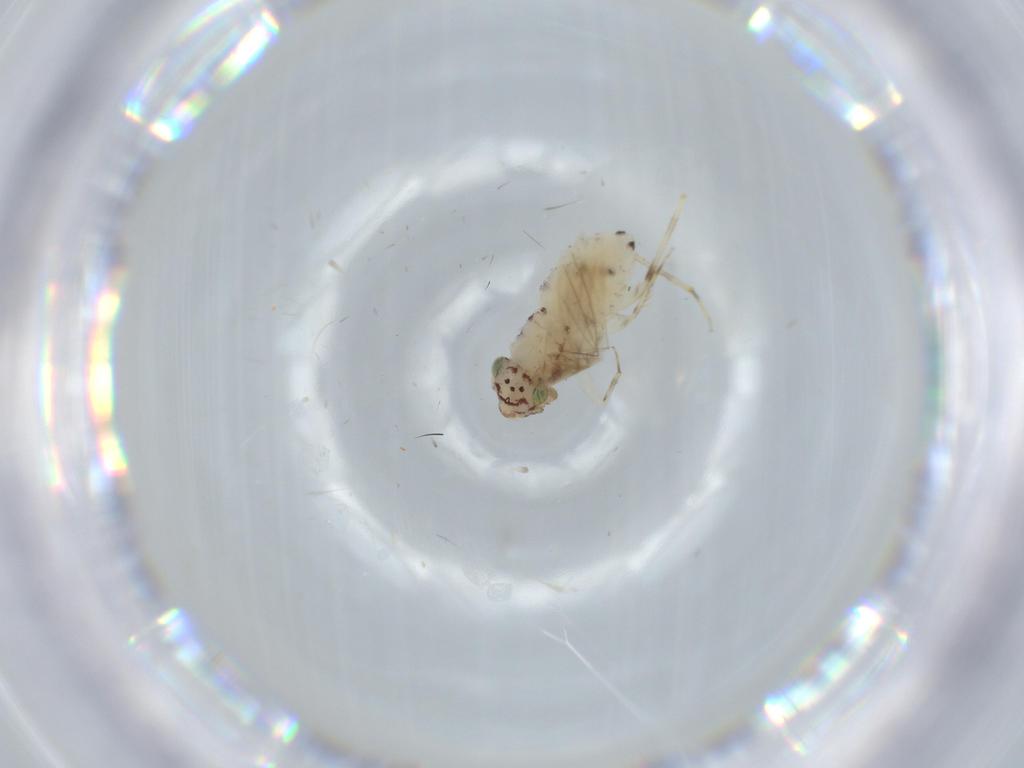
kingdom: Animalia
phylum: Arthropoda
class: Insecta
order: Psocodea
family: Lepidopsocidae
